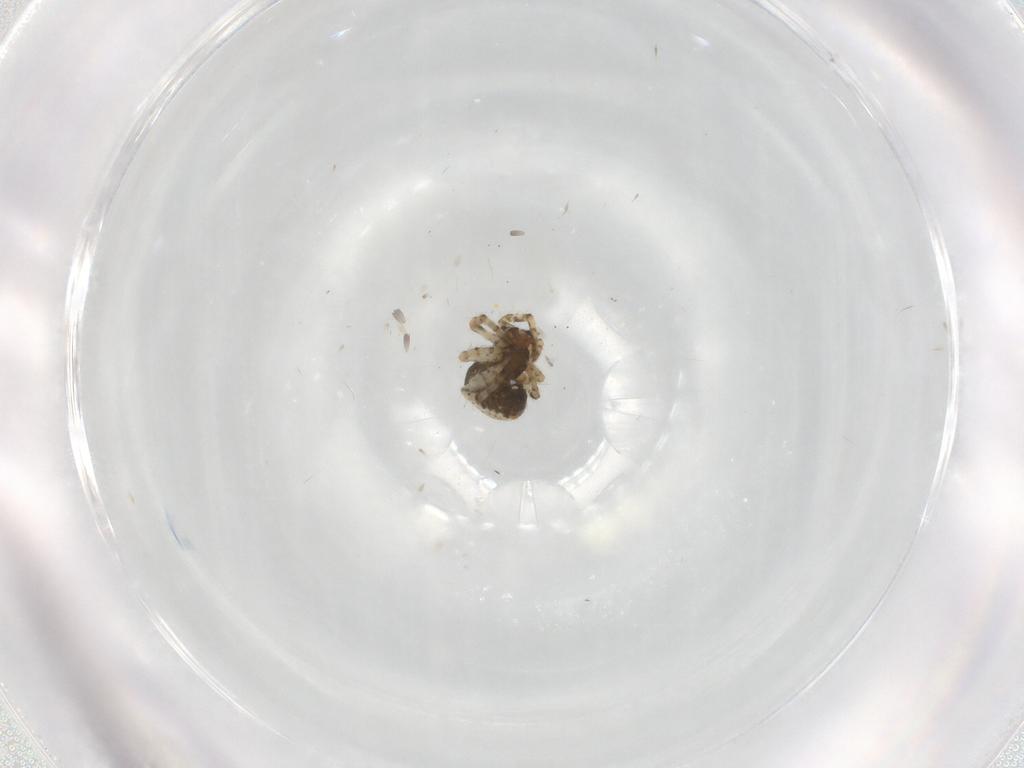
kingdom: Animalia
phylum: Arthropoda
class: Arachnida
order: Araneae
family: Theridiidae
